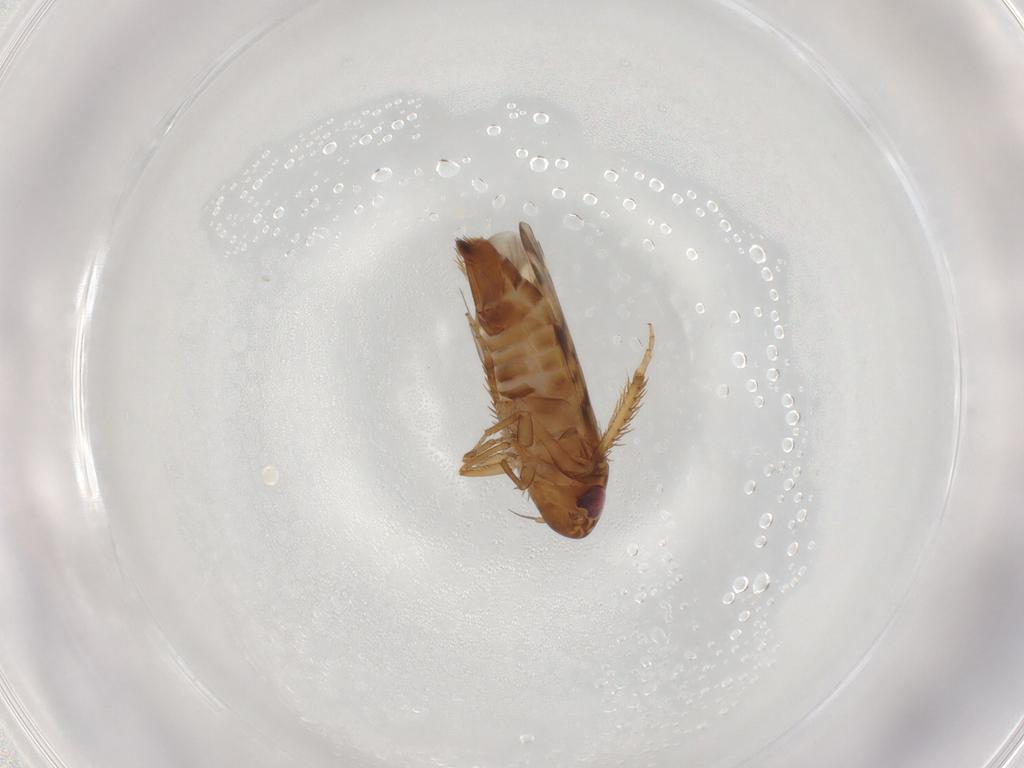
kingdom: Animalia
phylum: Arthropoda
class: Insecta
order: Hemiptera
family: Cicadellidae
